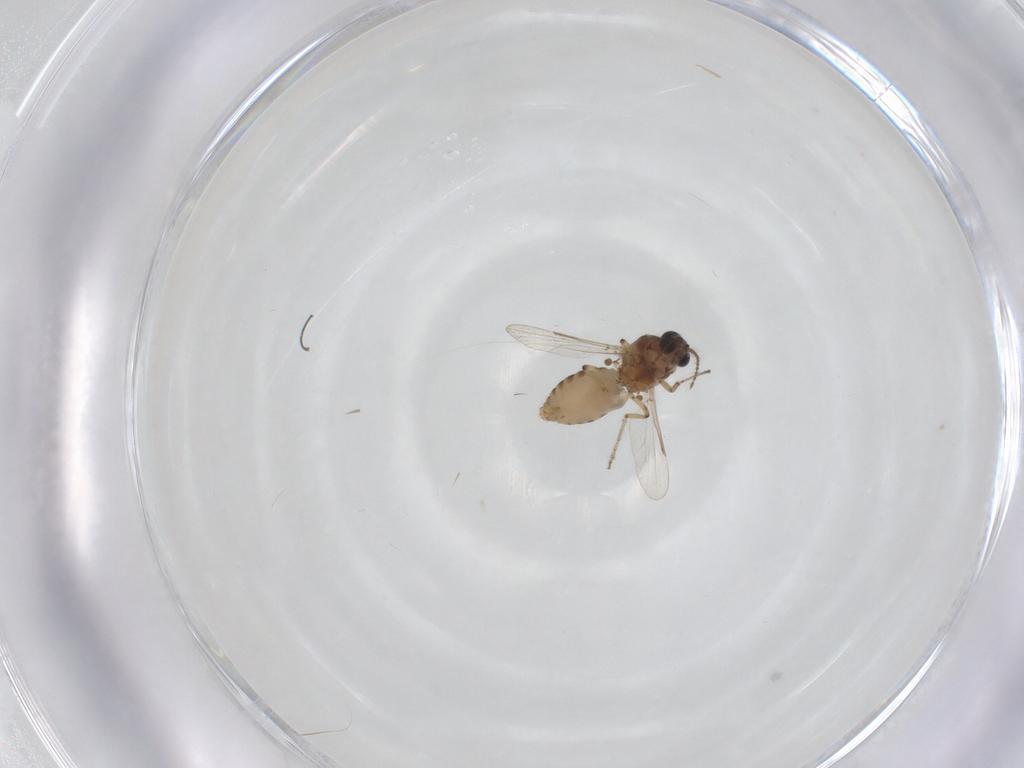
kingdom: Animalia
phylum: Arthropoda
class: Insecta
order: Diptera
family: Ceratopogonidae
